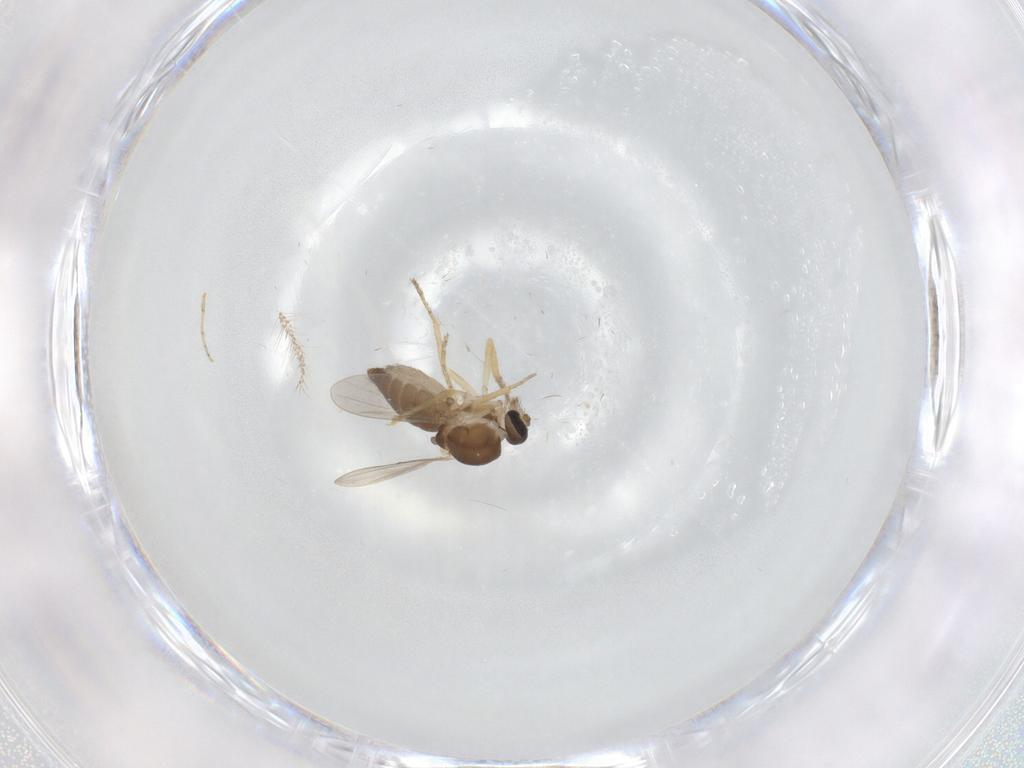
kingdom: Animalia
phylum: Arthropoda
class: Insecta
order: Diptera
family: Ceratopogonidae
